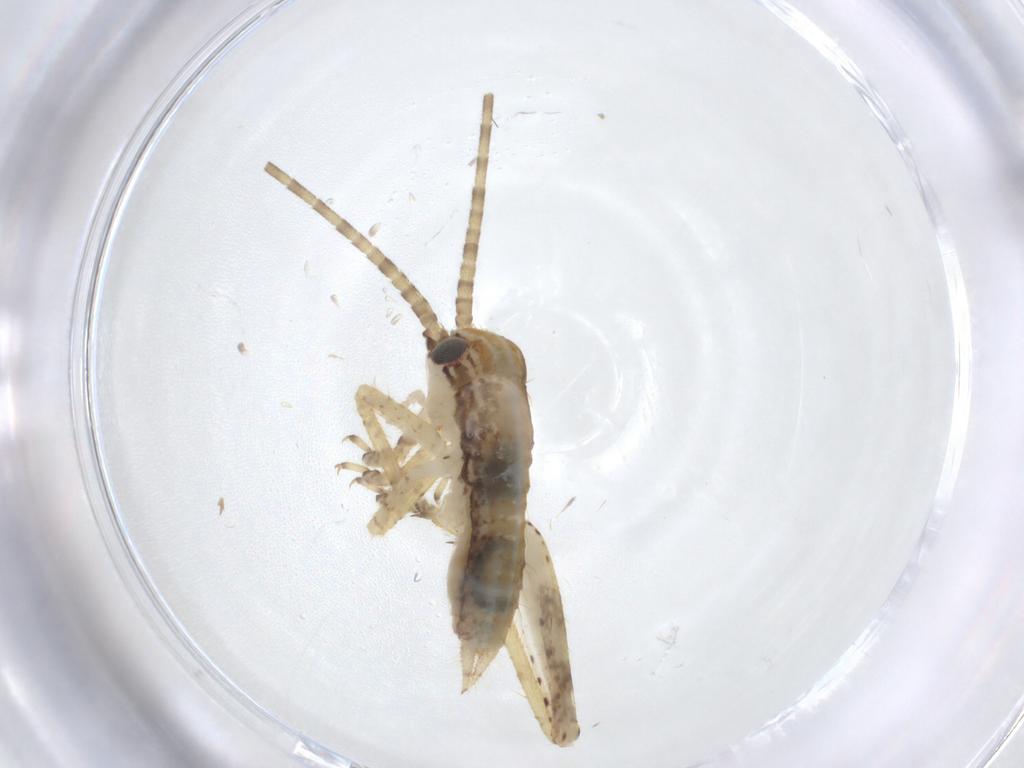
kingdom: Animalia
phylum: Arthropoda
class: Insecta
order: Orthoptera
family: Gryllidae
